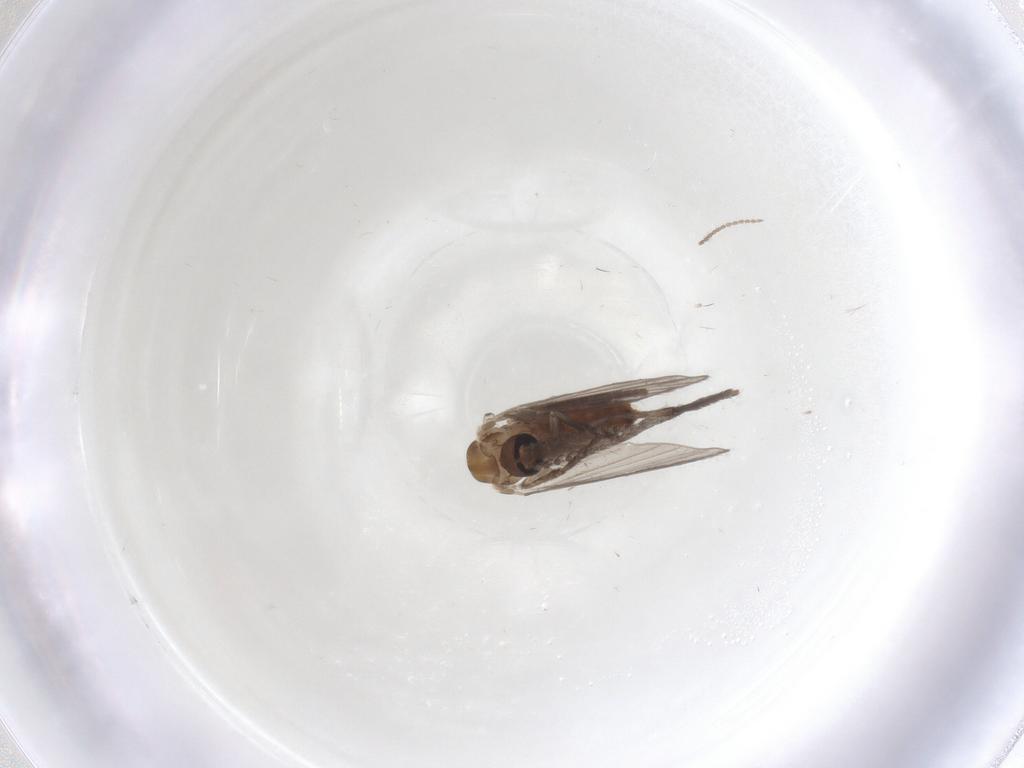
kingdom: Animalia
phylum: Arthropoda
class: Insecta
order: Diptera
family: Psychodidae
